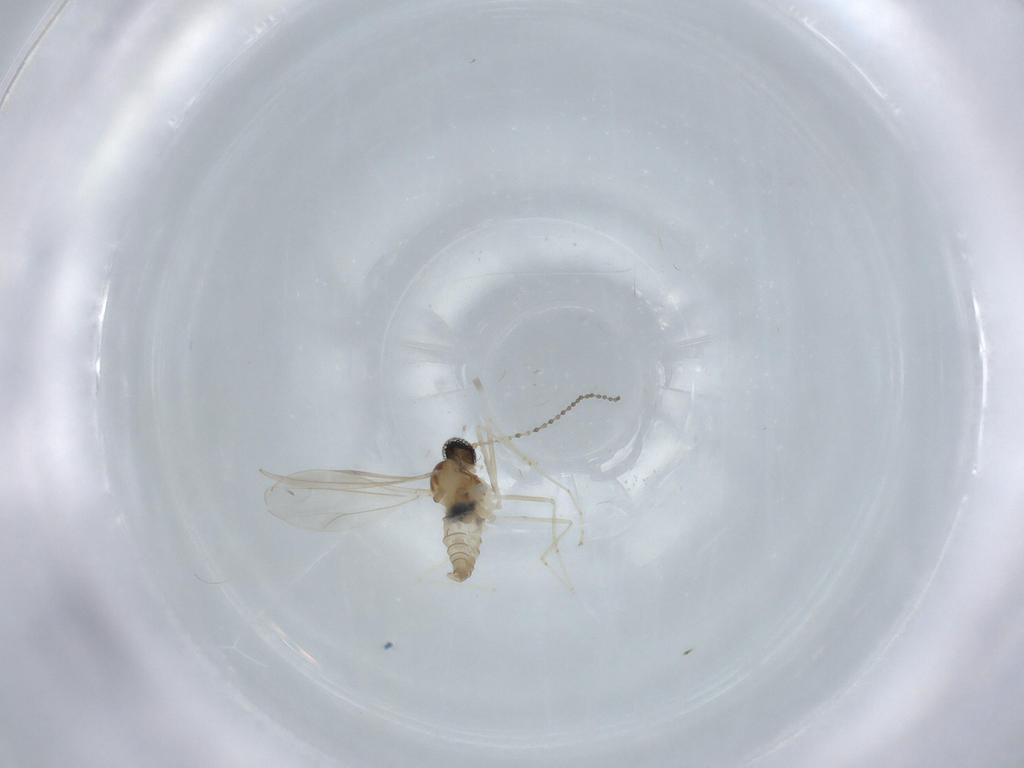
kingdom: Animalia
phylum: Arthropoda
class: Insecta
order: Diptera
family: Cecidomyiidae
